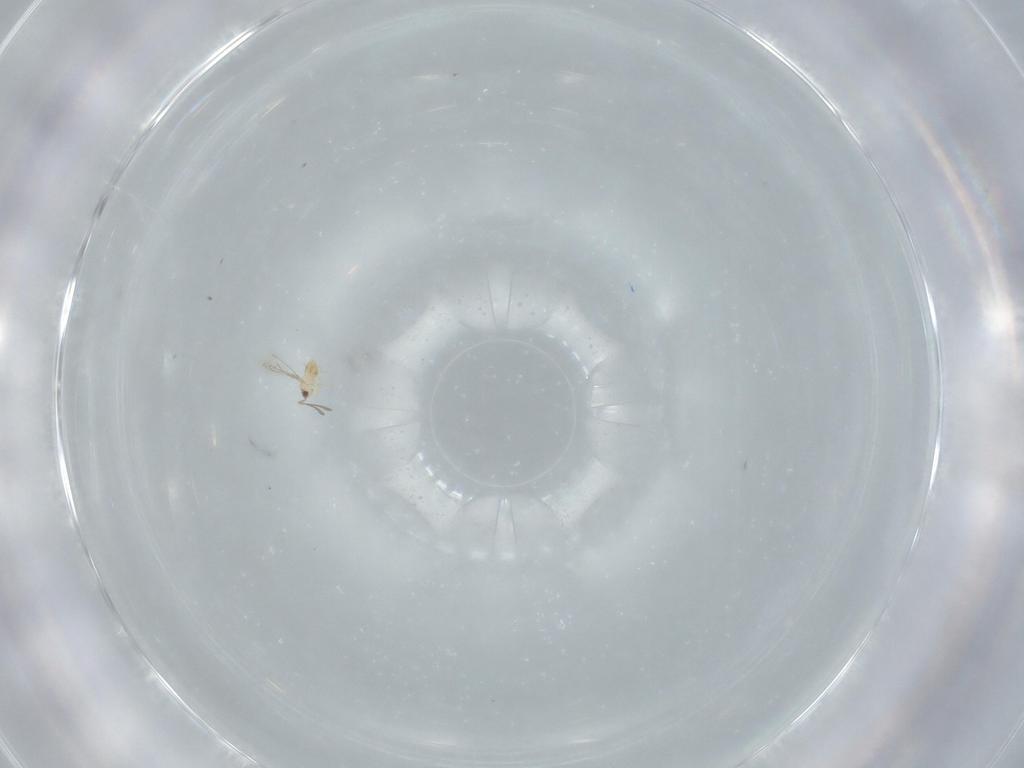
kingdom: Animalia
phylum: Arthropoda
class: Insecta
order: Hymenoptera
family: Mymaridae
